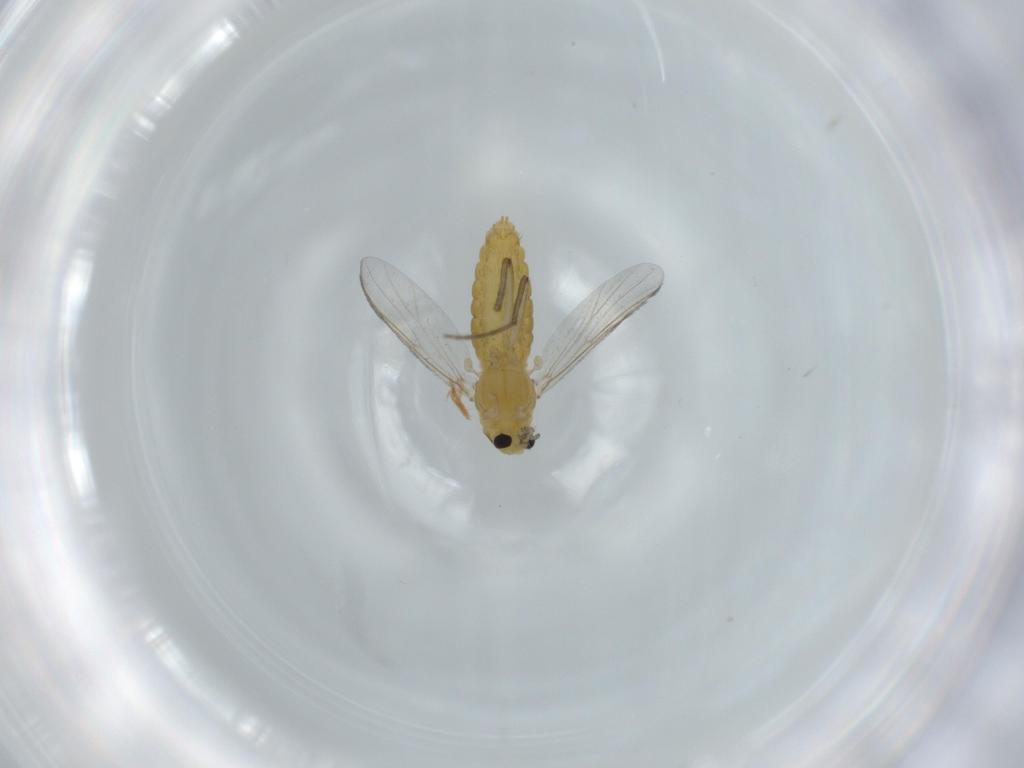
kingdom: Animalia
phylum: Arthropoda
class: Insecta
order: Diptera
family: Chironomidae
